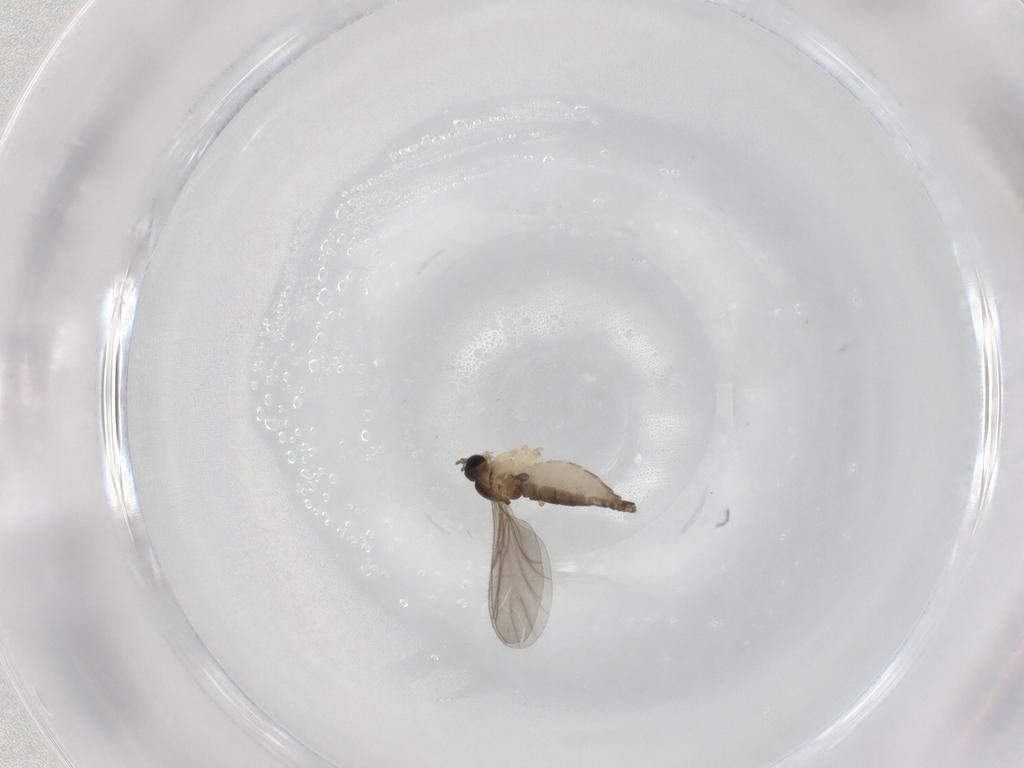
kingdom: Animalia
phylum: Arthropoda
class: Insecta
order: Diptera
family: Sciaridae
